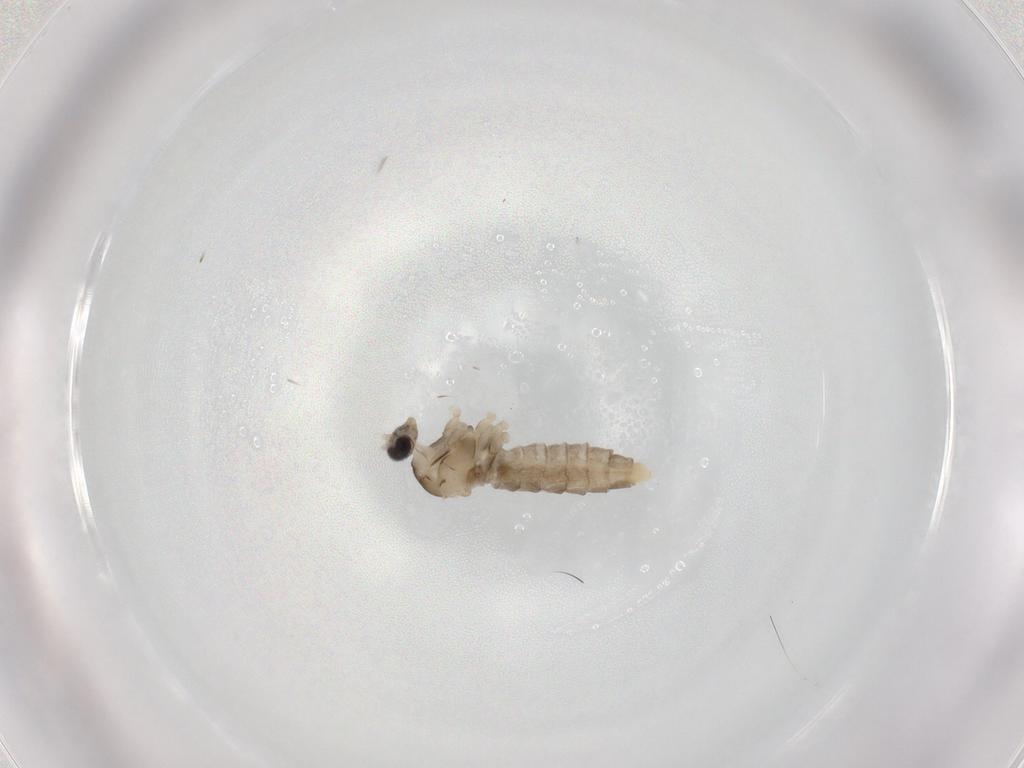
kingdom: Animalia
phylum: Arthropoda
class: Insecta
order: Diptera
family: Cecidomyiidae
